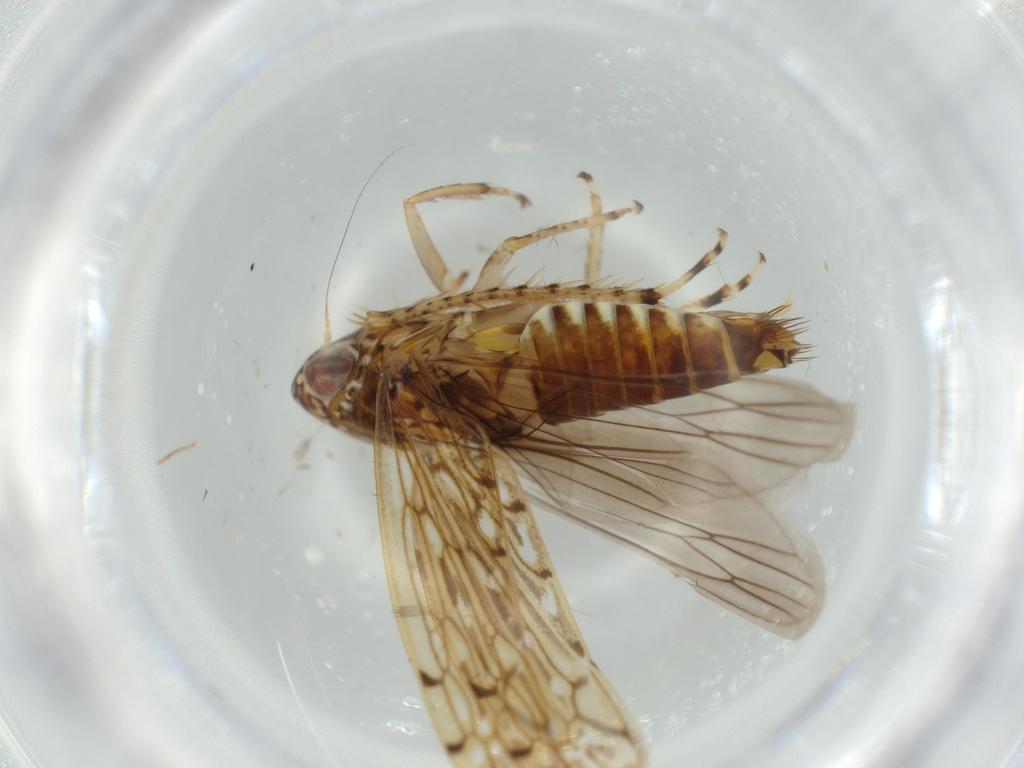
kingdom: Animalia
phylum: Arthropoda
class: Insecta
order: Hemiptera
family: Cicadellidae
